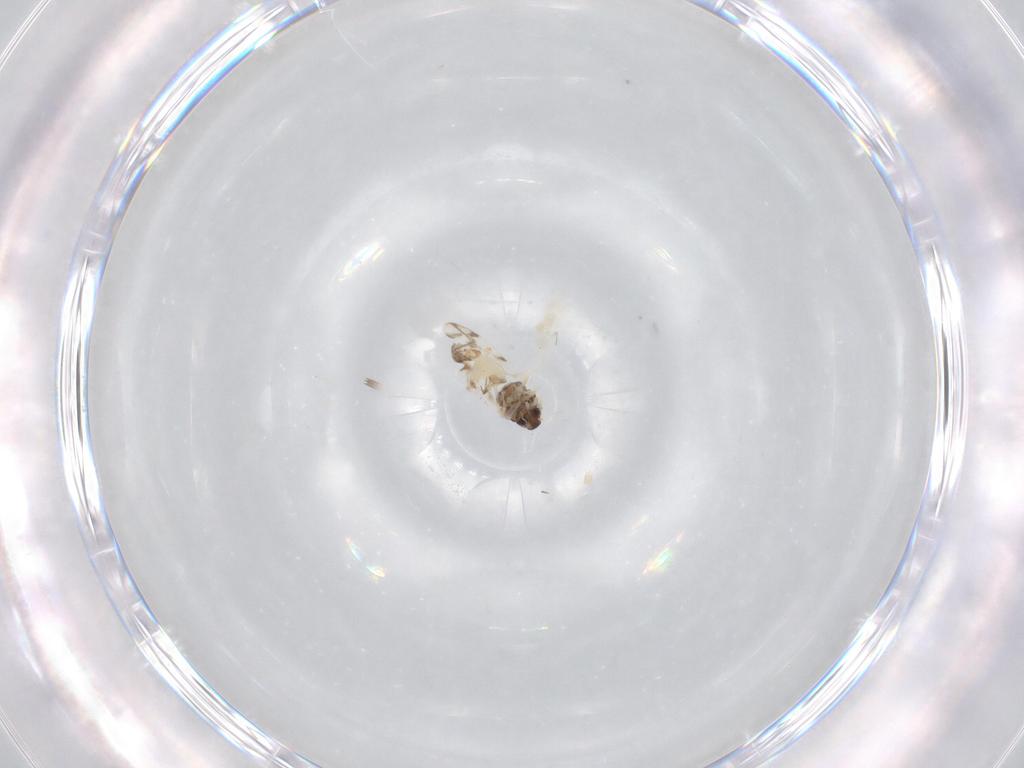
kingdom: Animalia
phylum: Arthropoda
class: Insecta
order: Hemiptera
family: Aleyrodidae
